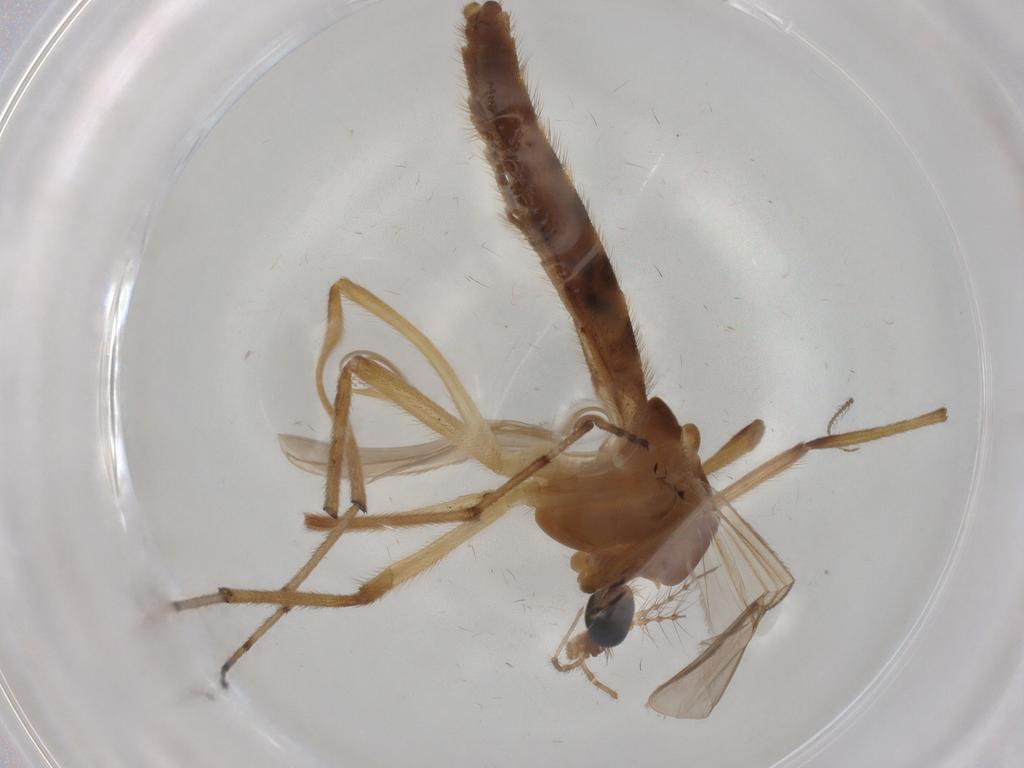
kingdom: Animalia
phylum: Arthropoda
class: Insecta
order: Diptera
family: Ceratopogonidae
